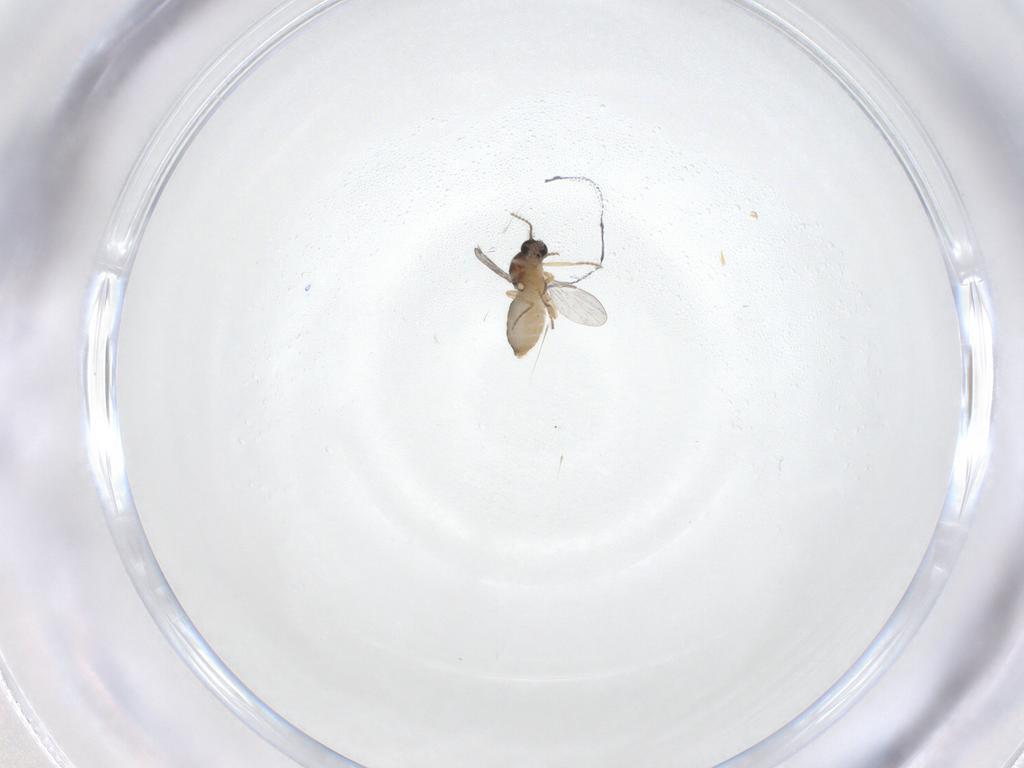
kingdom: Animalia
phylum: Arthropoda
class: Insecta
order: Diptera
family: Ceratopogonidae
